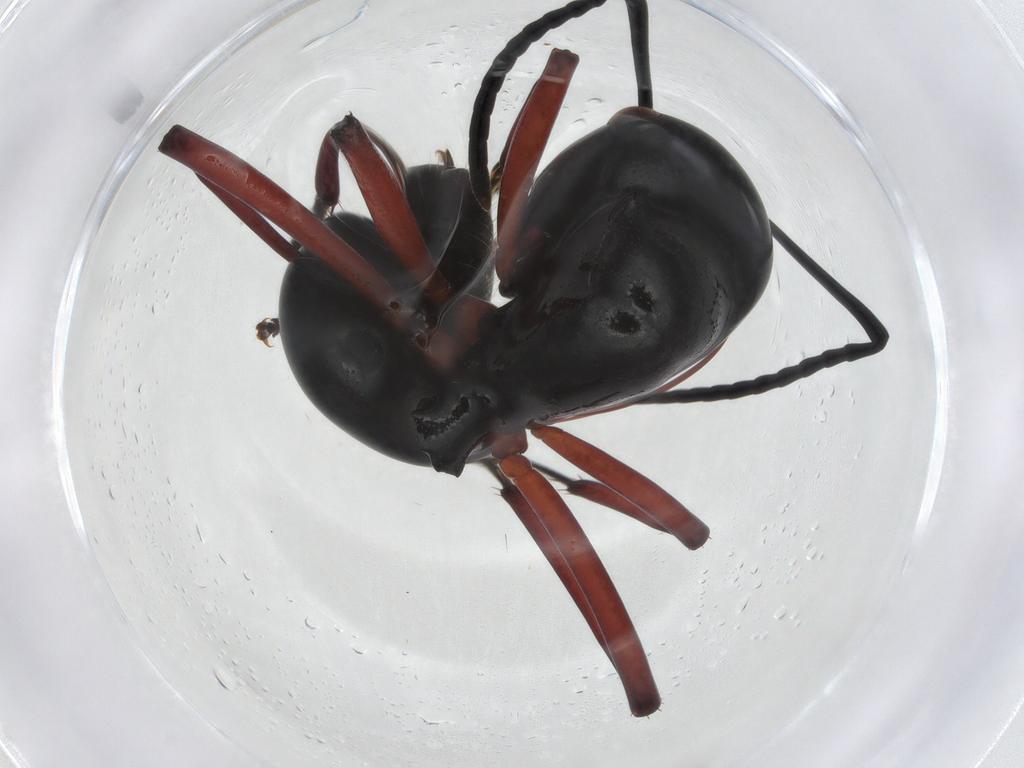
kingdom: Animalia
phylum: Arthropoda
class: Insecta
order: Hymenoptera
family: Formicidae
